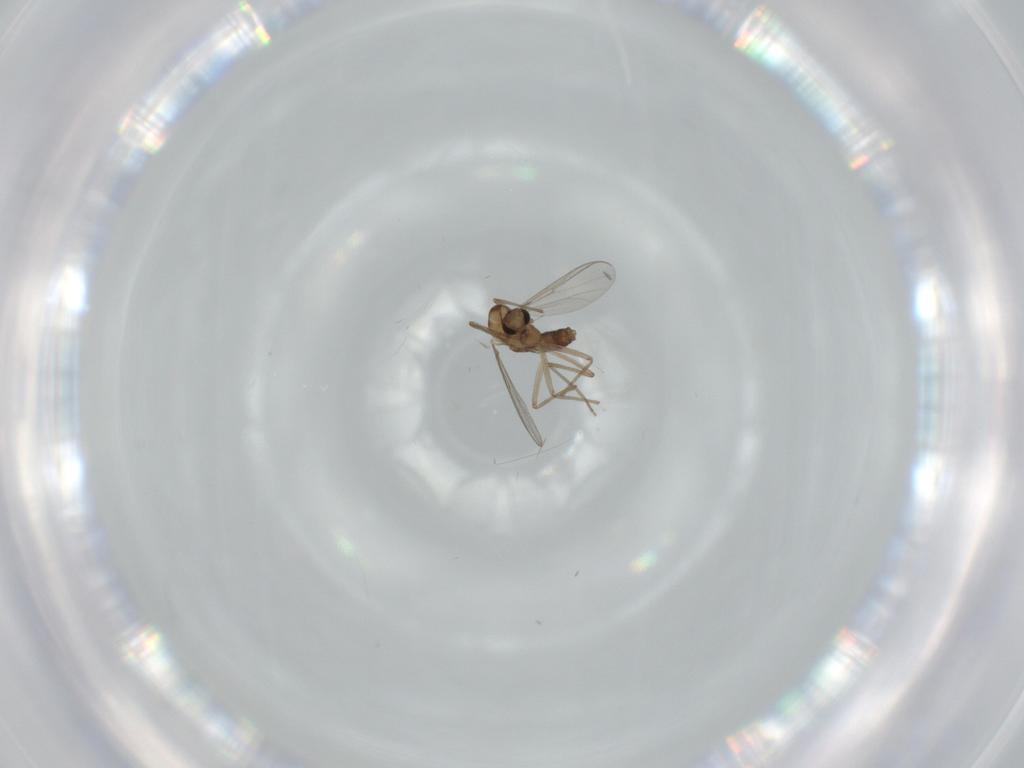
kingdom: Animalia
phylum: Arthropoda
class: Insecta
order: Diptera
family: Chironomidae
